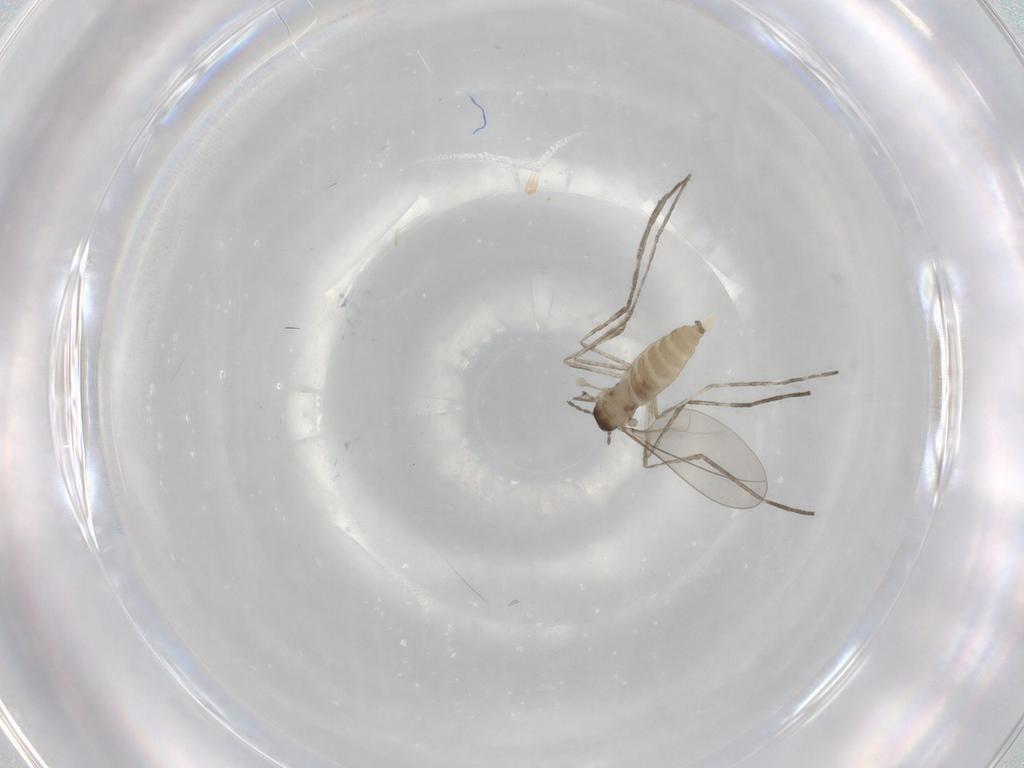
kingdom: Animalia
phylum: Arthropoda
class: Insecta
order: Diptera
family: Cecidomyiidae
